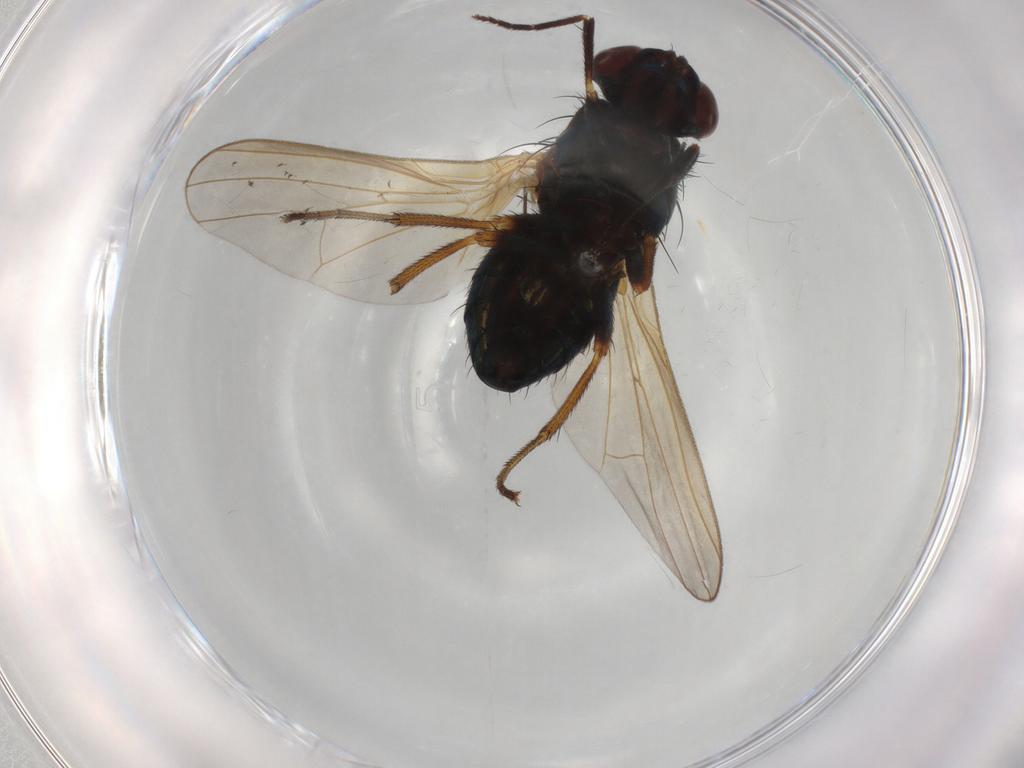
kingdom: Animalia
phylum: Arthropoda
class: Insecta
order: Diptera
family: Lauxaniidae
